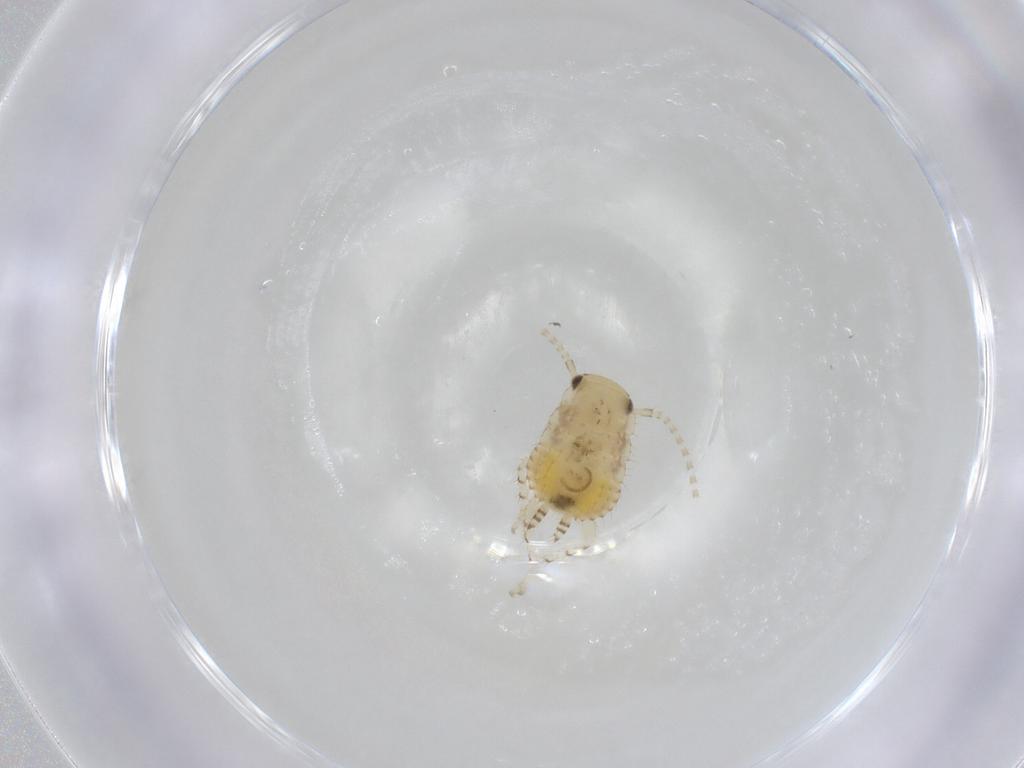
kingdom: Animalia
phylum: Arthropoda
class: Insecta
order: Blattodea
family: Ectobiidae
